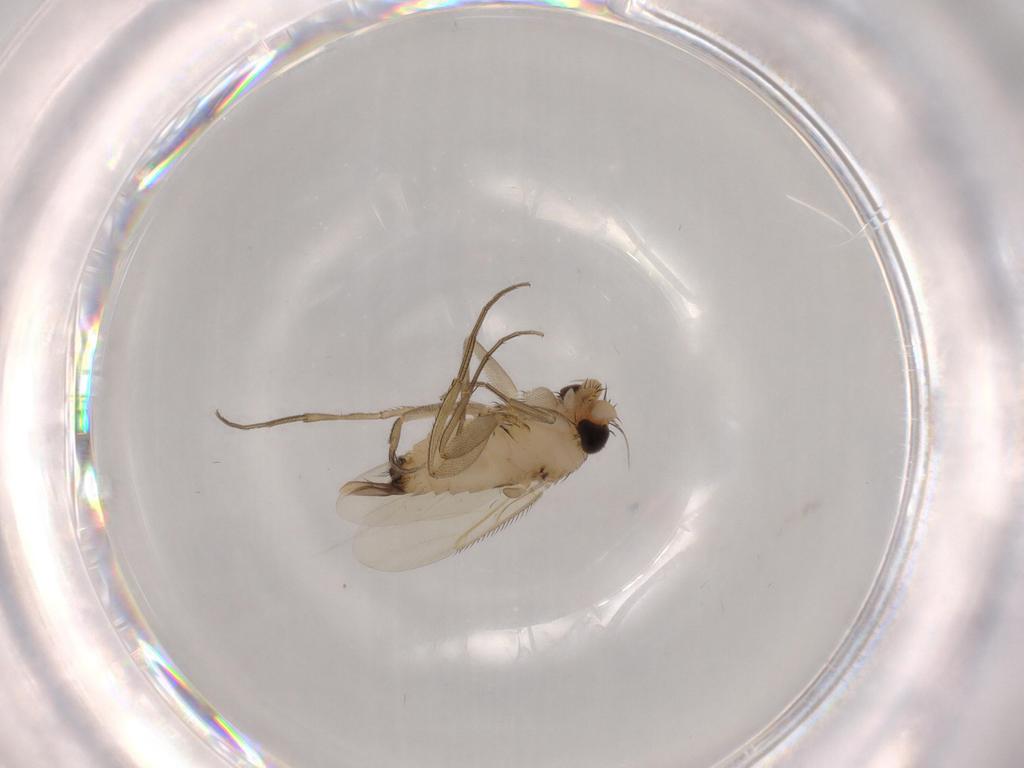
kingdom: Animalia
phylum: Arthropoda
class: Insecta
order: Diptera
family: Phoridae
